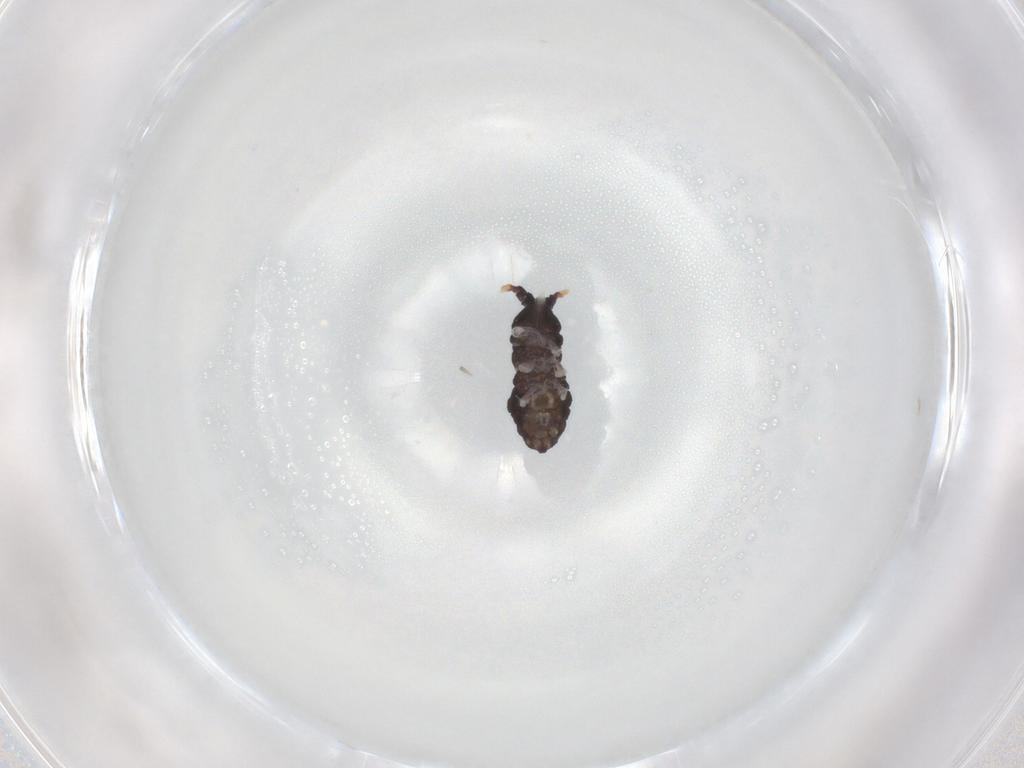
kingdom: Animalia
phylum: Arthropoda
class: Collembola
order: Poduromorpha
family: Neanuridae
